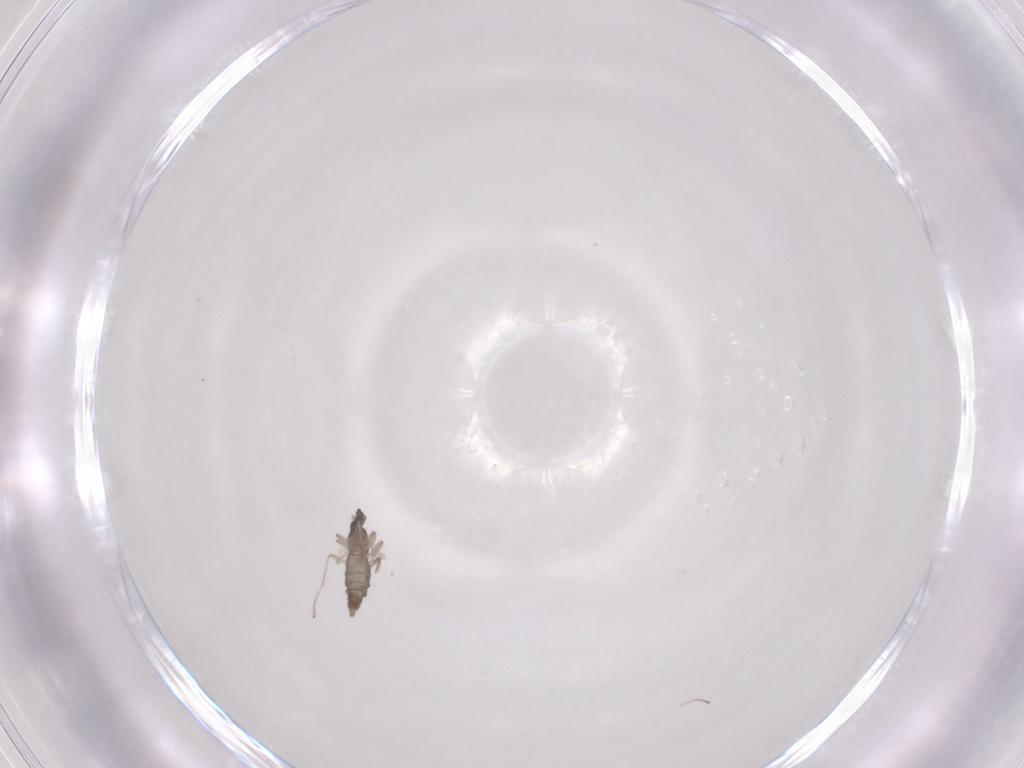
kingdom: Animalia
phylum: Arthropoda
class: Insecta
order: Diptera
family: Cecidomyiidae
